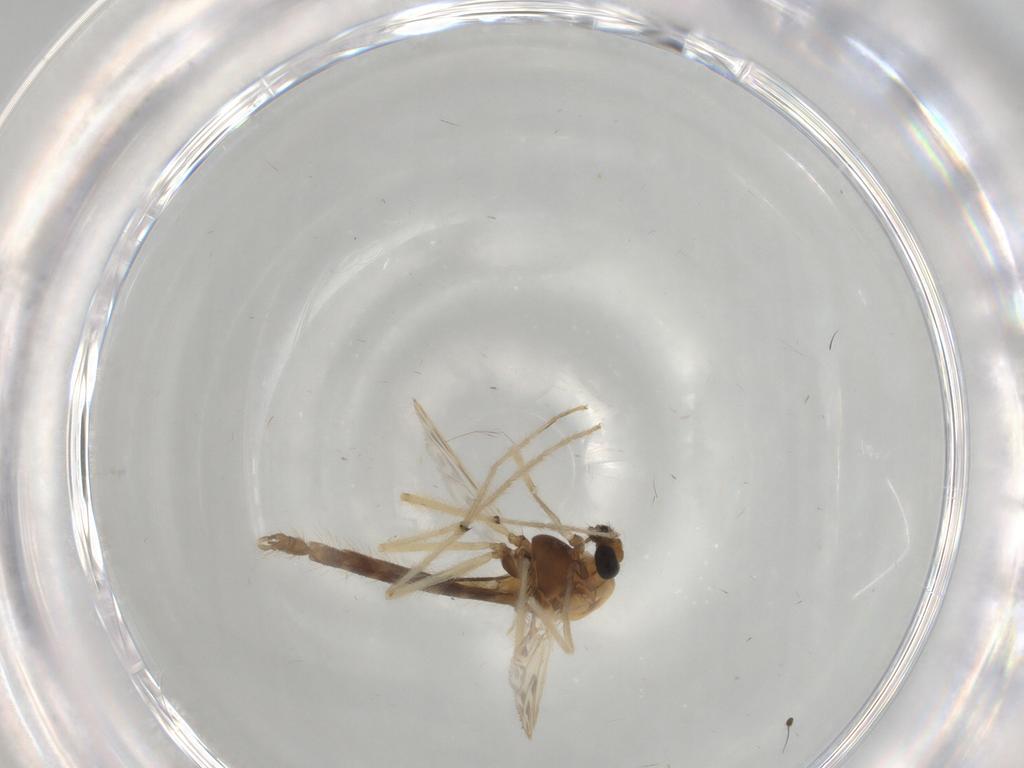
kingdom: Animalia
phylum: Arthropoda
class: Insecta
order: Diptera
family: Chironomidae
